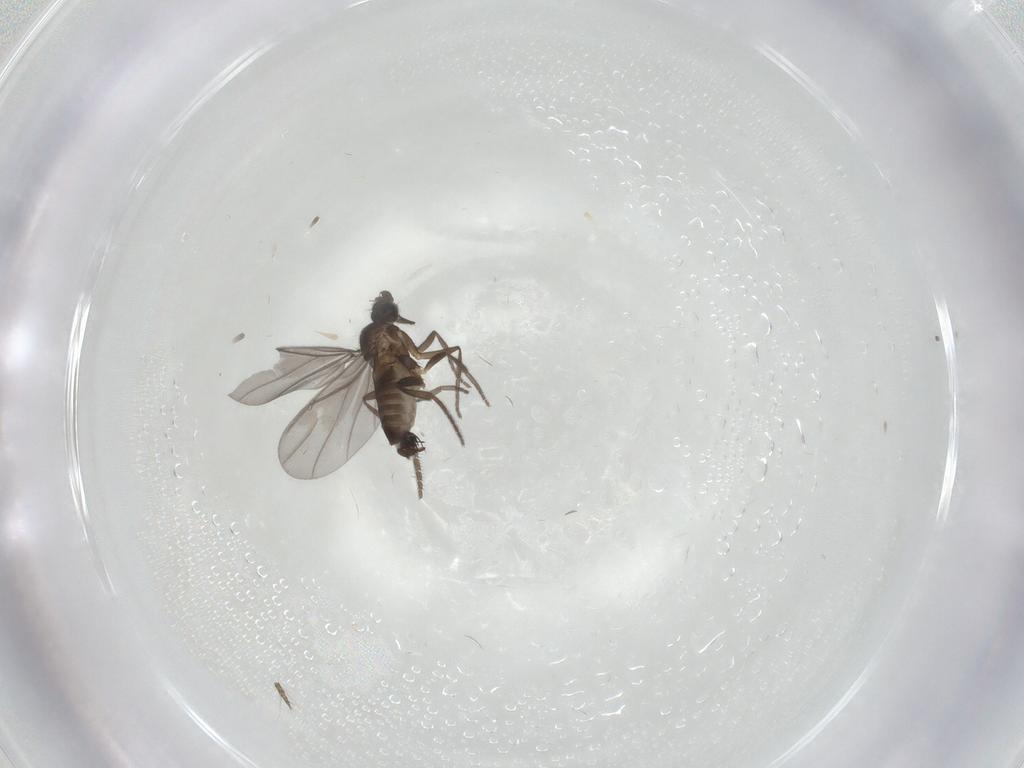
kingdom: Animalia
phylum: Arthropoda
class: Insecta
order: Diptera
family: Phoridae
